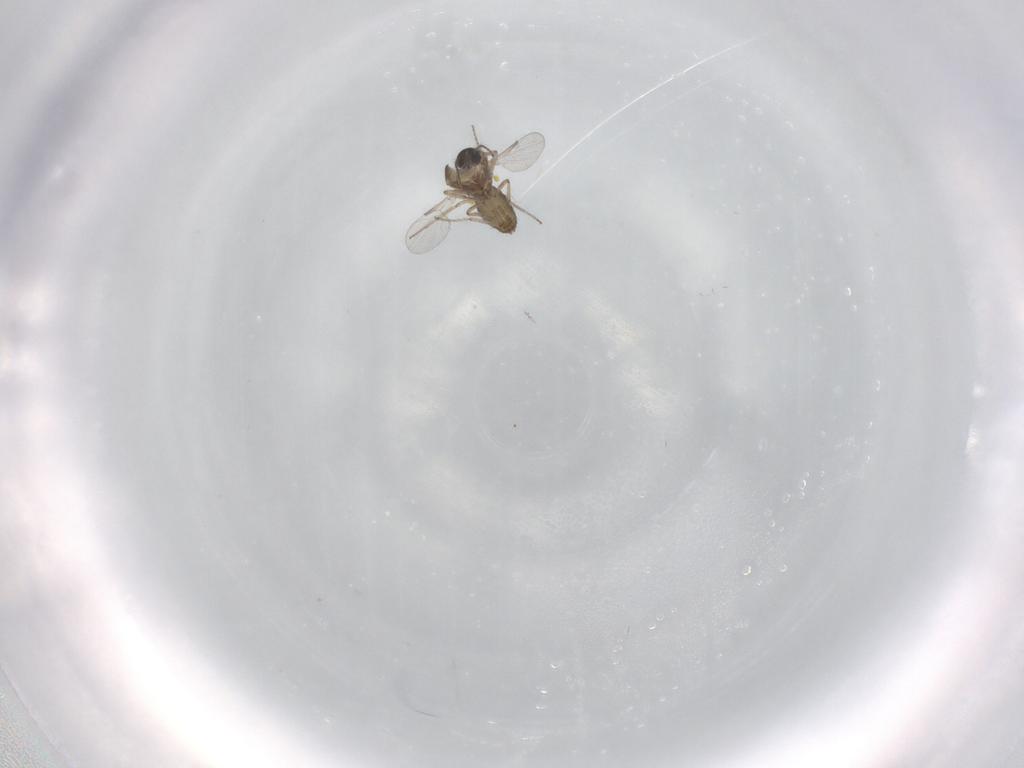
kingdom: Animalia
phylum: Arthropoda
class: Insecta
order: Diptera
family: Ceratopogonidae
